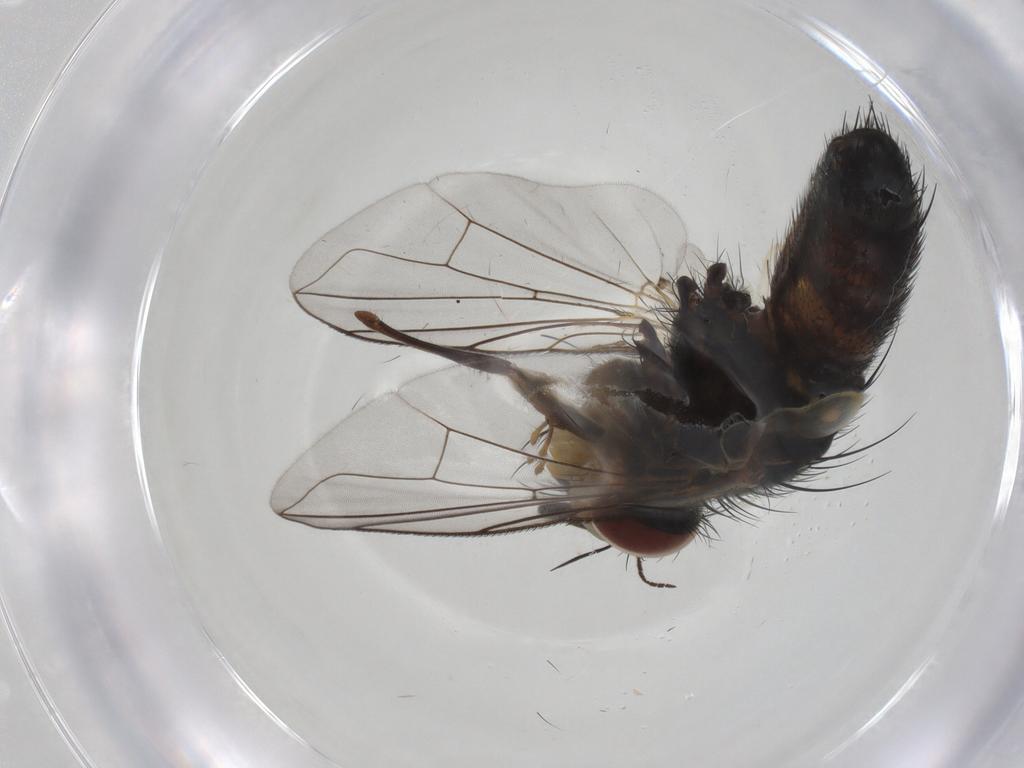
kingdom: Animalia
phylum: Arthropoda
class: Insecta
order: Diptera
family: Tachinidae
